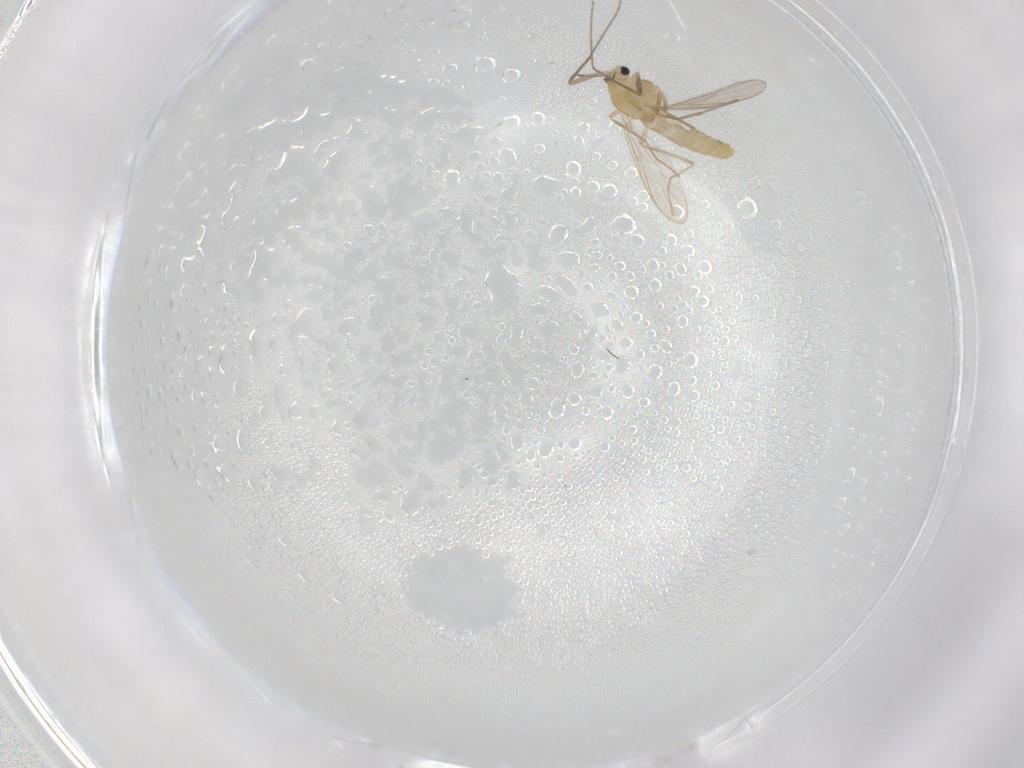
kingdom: Animalia
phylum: Arthropoda
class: Insecta
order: Diptera
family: Chironomidae
